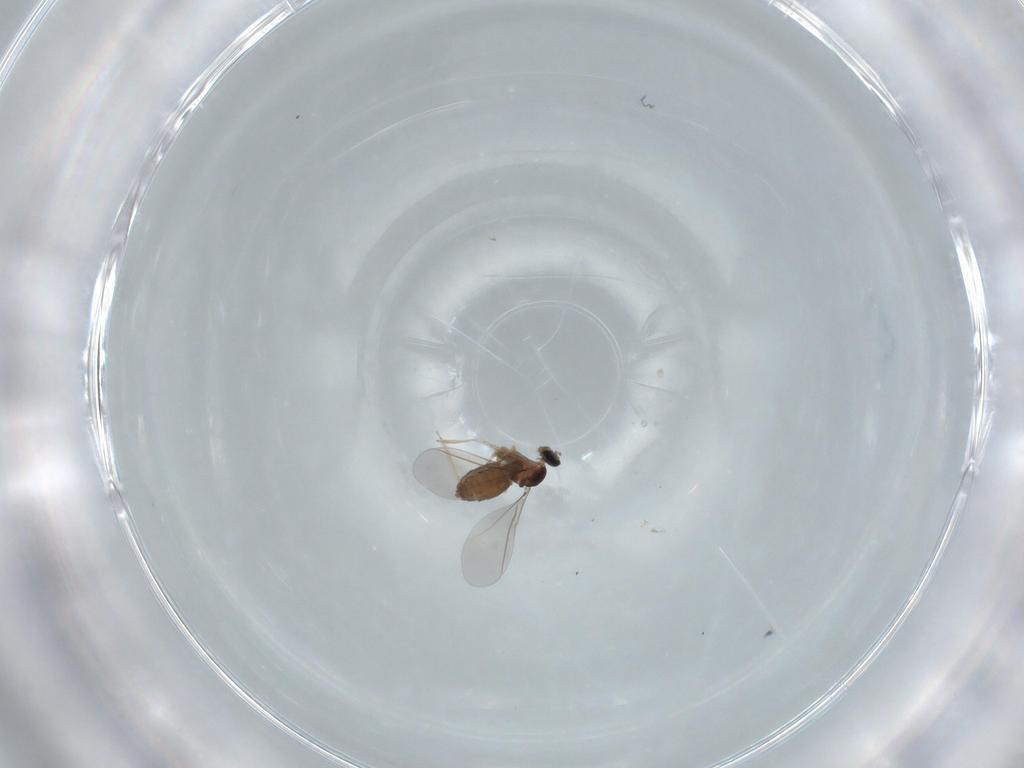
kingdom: Animalia
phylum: Arthropoda
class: Insecta
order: Diptera
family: Cecidomyiidae
